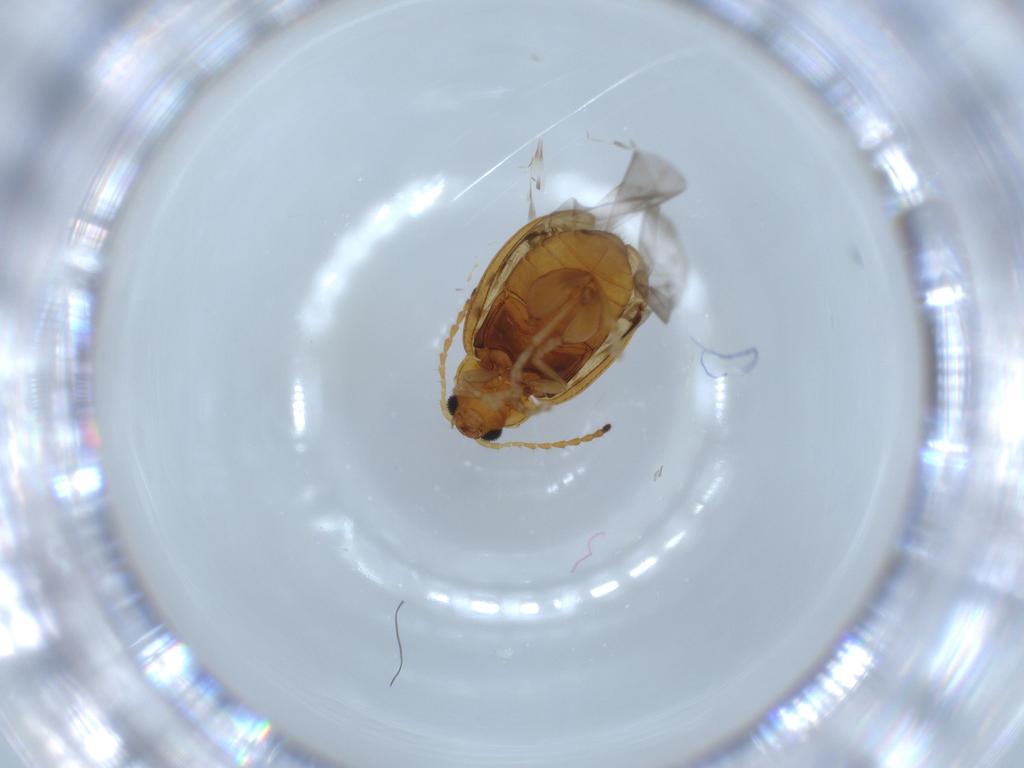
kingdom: Animalia
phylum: Arthropoda
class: Insecta
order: Coleoptera
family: Chrysomelidae
